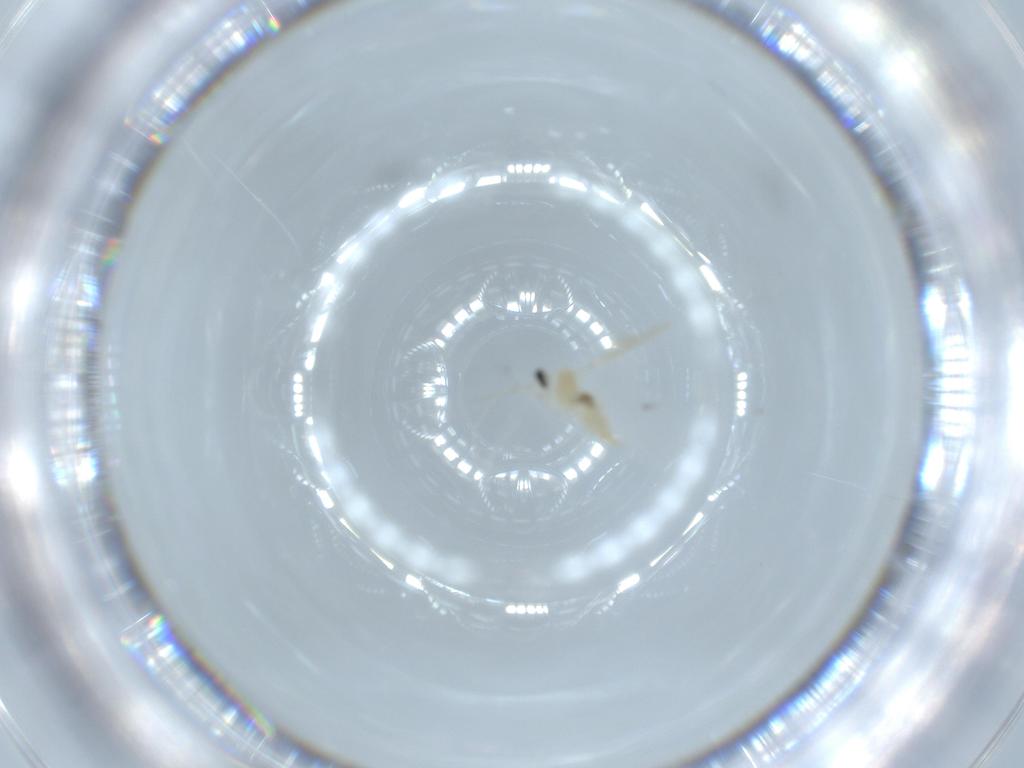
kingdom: Animalia
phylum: Arthropoda
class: Insecta
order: Diptera
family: Cecidomyiidae
